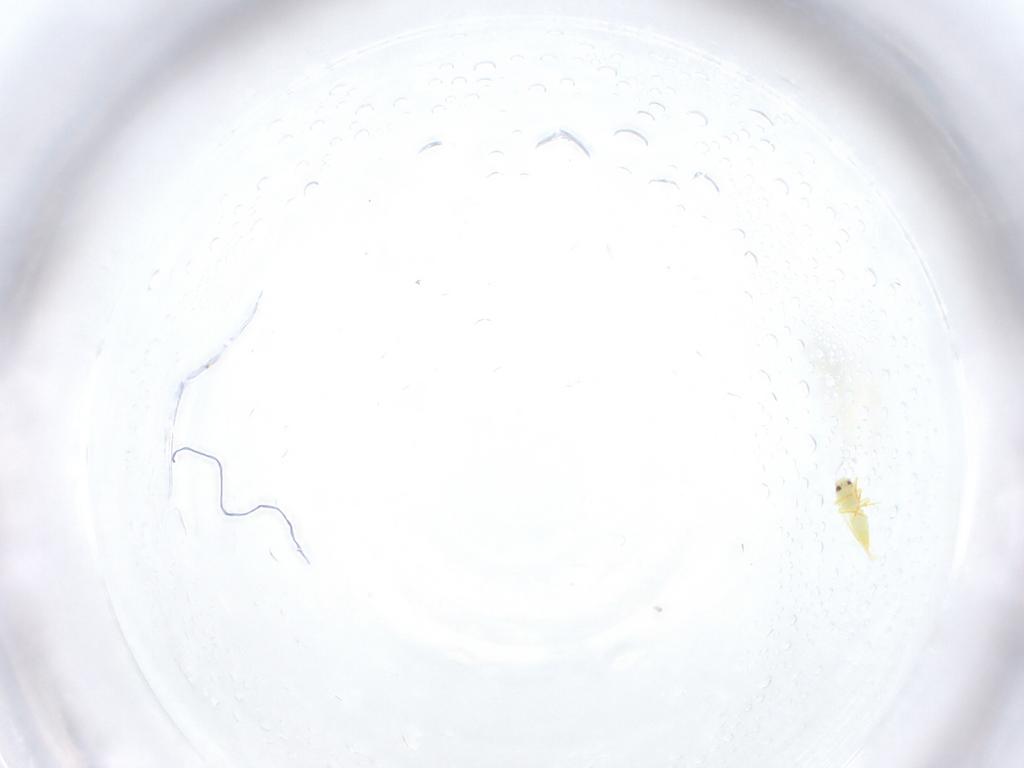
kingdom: Animalia
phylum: Arthropoda
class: Insecta
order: Hemiptera
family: Aleyrodidae
